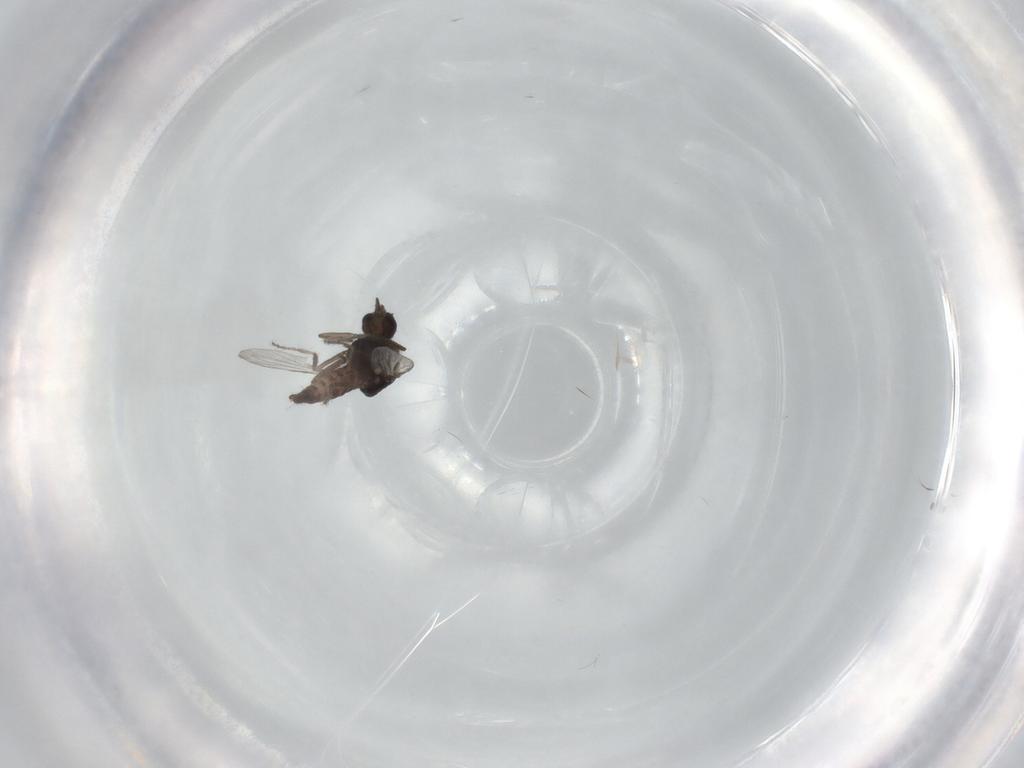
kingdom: Animalia
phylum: Arthropoda
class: Insecta
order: Diptera
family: Ceratopogonidae
